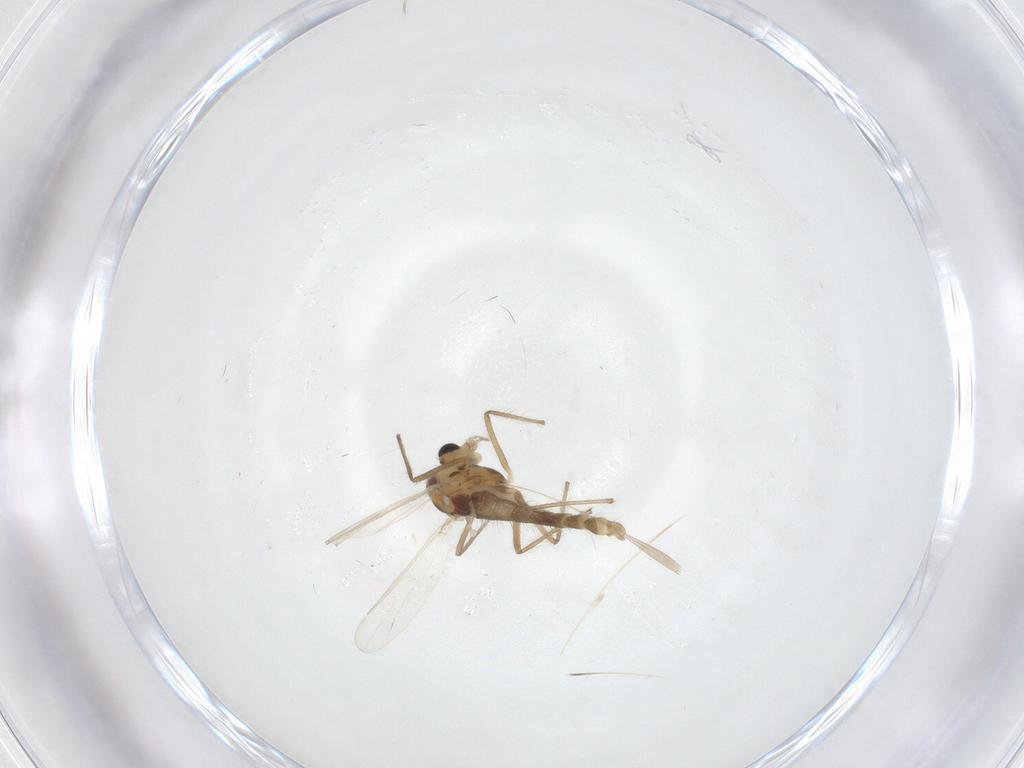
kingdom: Animalia
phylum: Arthropoda
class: Insecta
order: Diptera
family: Chironomidae
